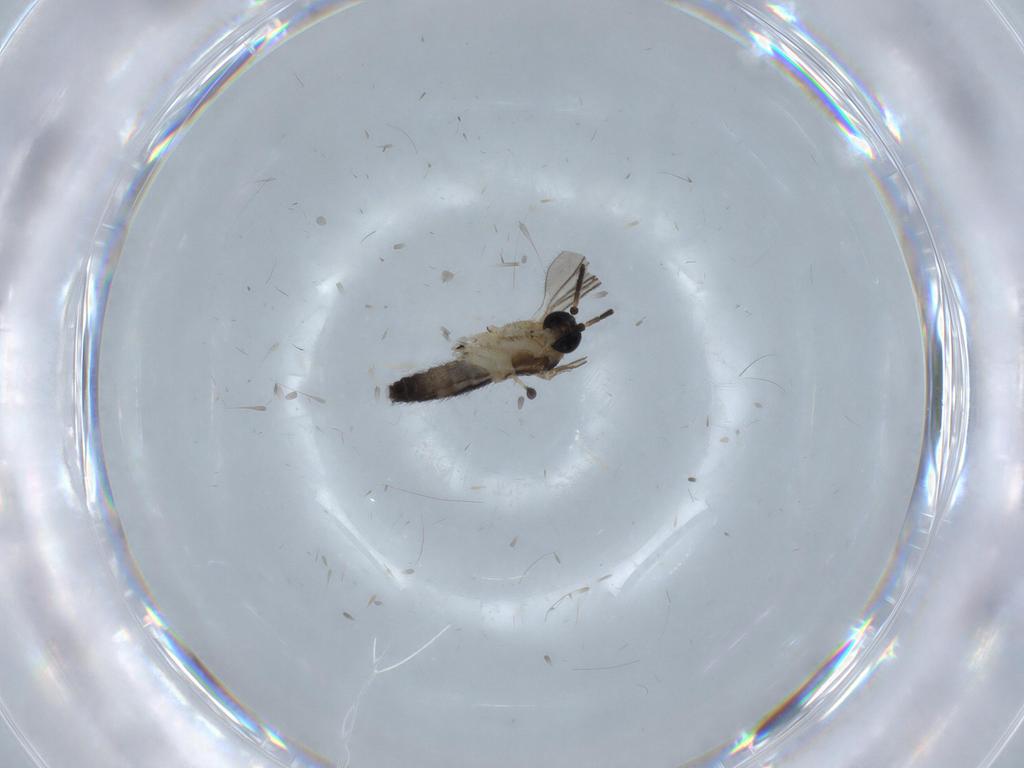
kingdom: Animalia
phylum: Arthropoda
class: Insecta
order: Diptera
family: Sciaridae
